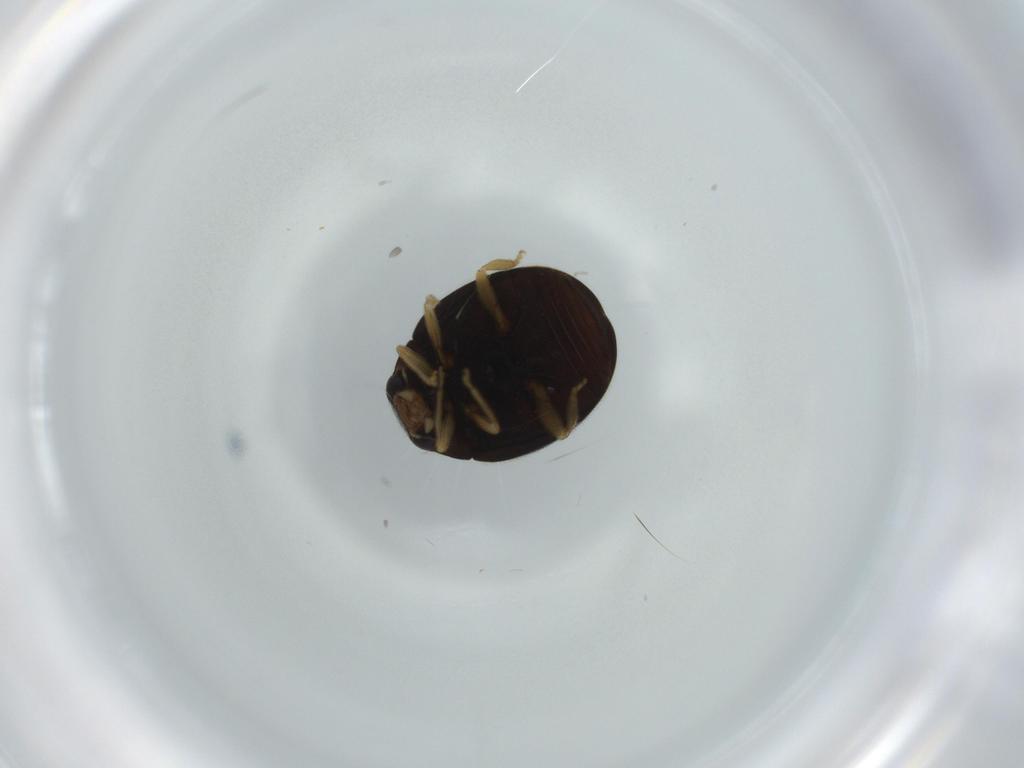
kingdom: Animalia
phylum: Arthropoda
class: Insecta
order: Coleoptera
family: Coccinellidae
